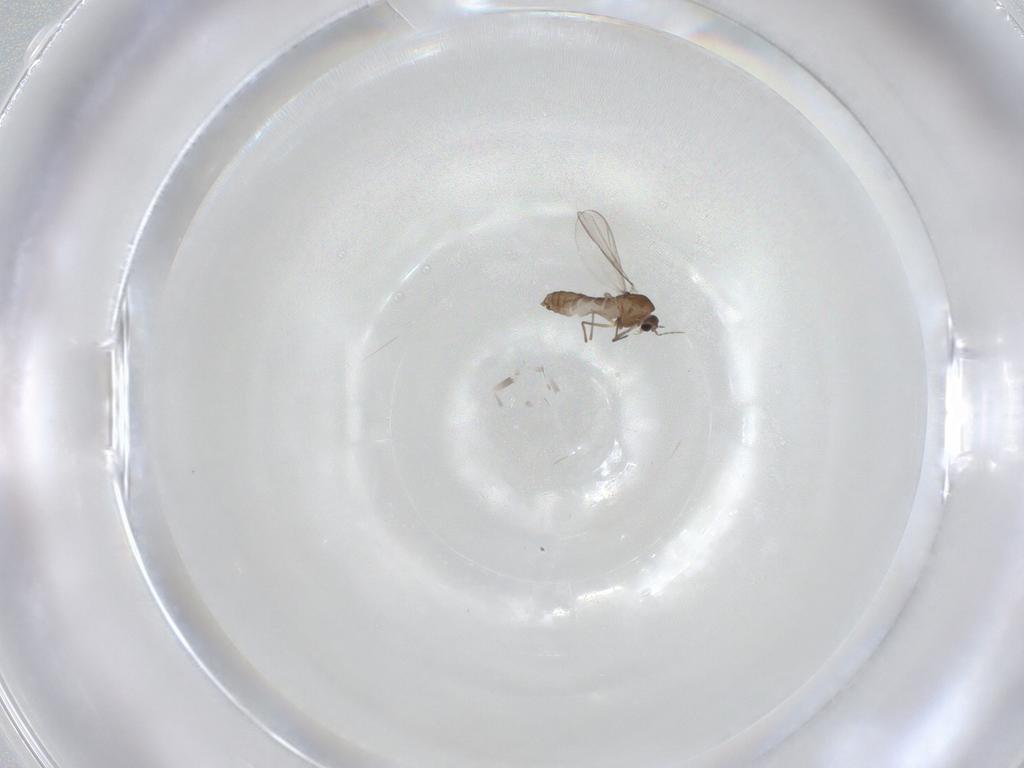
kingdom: Animalia
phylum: Arthropoda
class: Insecta
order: Diptera
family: Chironomidae
